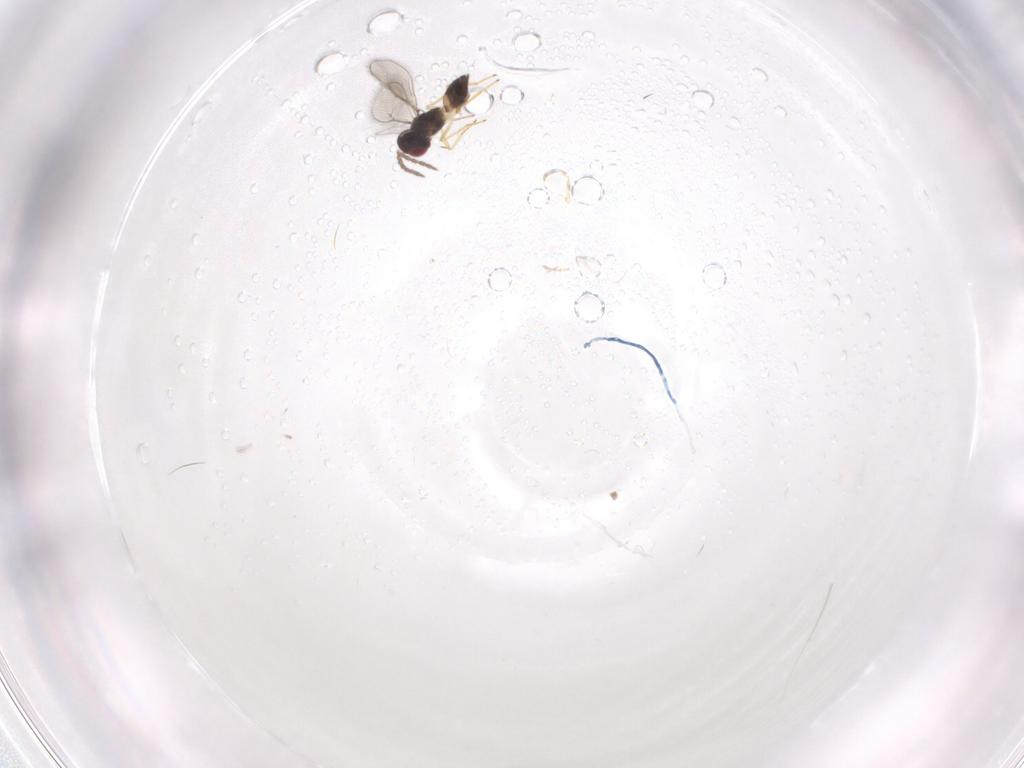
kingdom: Animalia
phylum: Arthropoda
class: Insecta
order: Hymenoptera
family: Eulophidae
